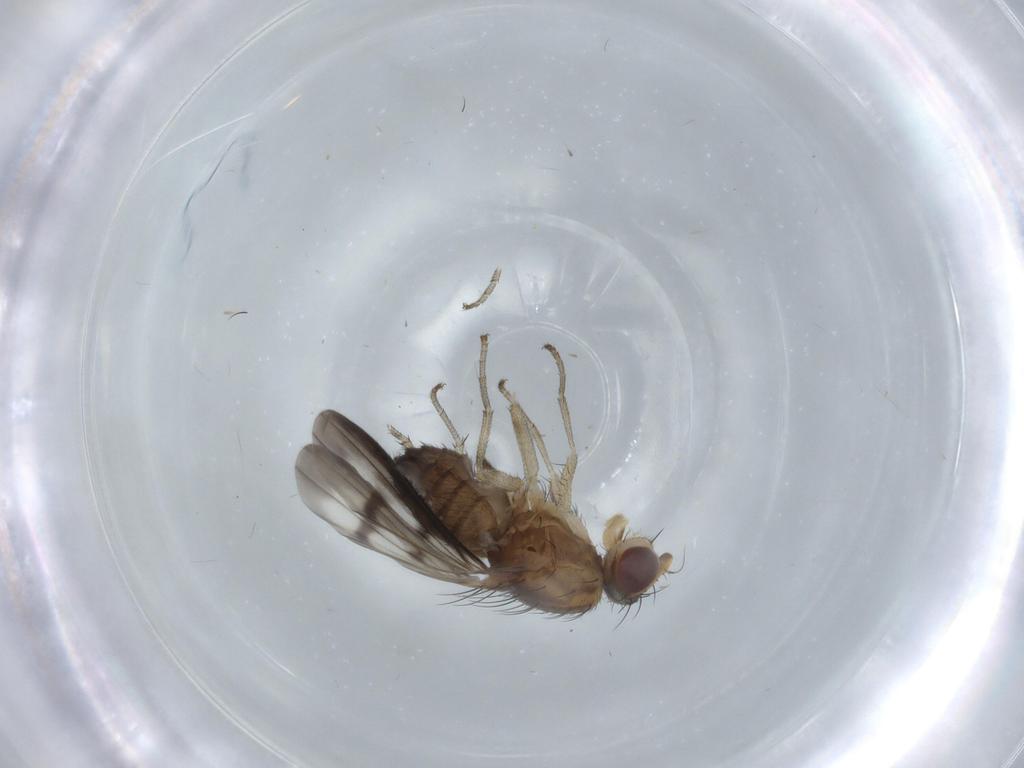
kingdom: Animalia
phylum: Arthropoda
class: Insecta
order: Diptera
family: Heleomyzidae
